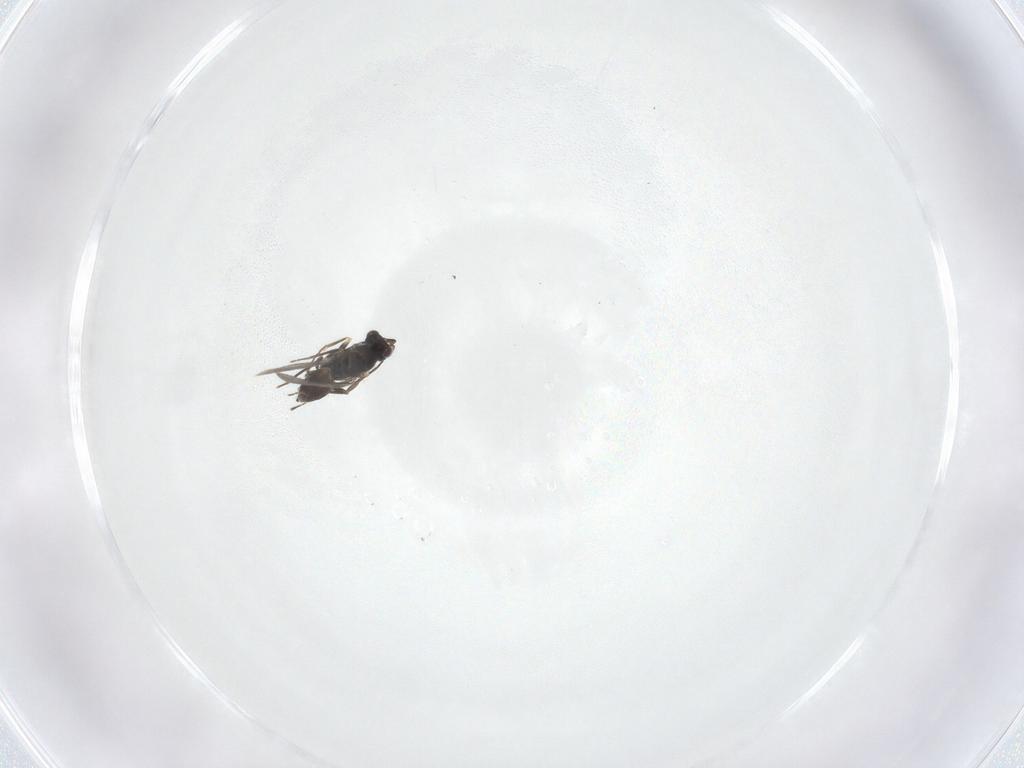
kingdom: Animalia
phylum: Arthropoda
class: Insecta
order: Hymenoptera
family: Mymaridae
